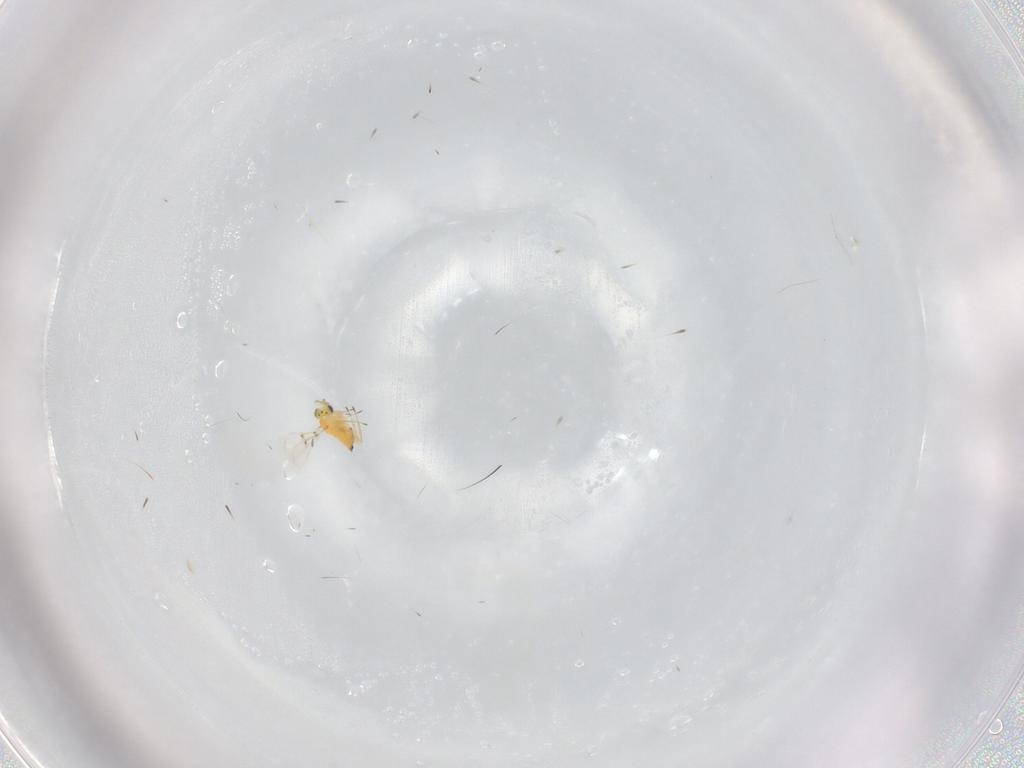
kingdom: Animalia
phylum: Arthropoda
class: Insecta
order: Hymenoptera
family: Trichogrammatidae
